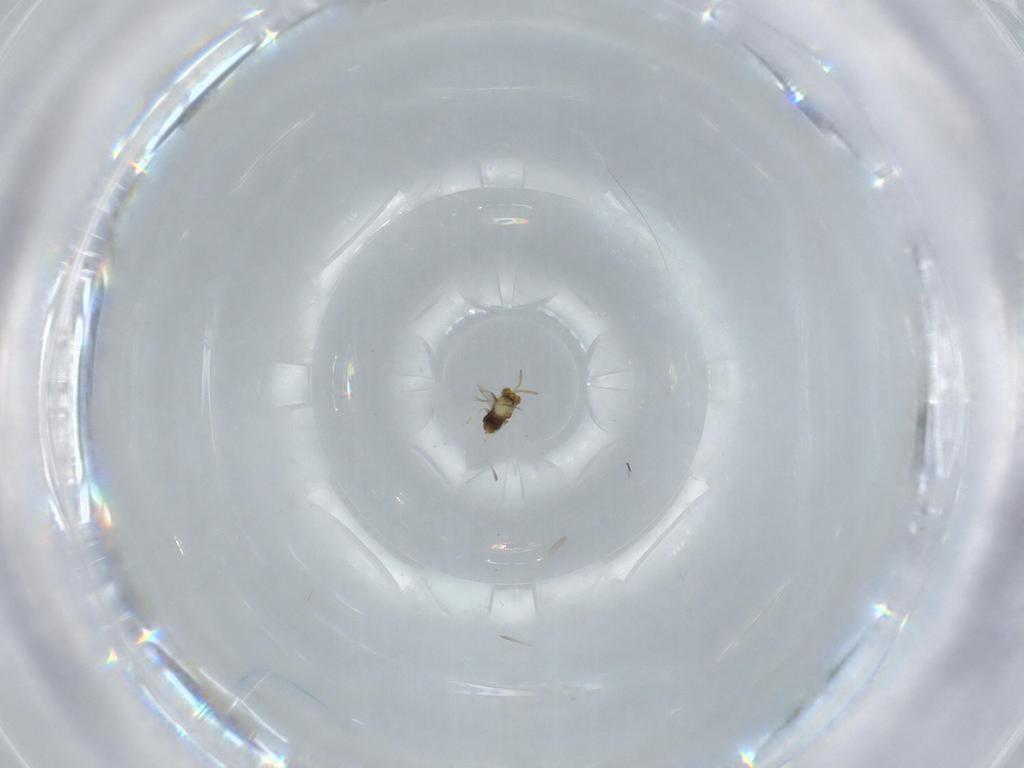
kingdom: Animalia
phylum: Arthropoda
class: Insecta
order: Hymenoptera
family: Aphelinidae
